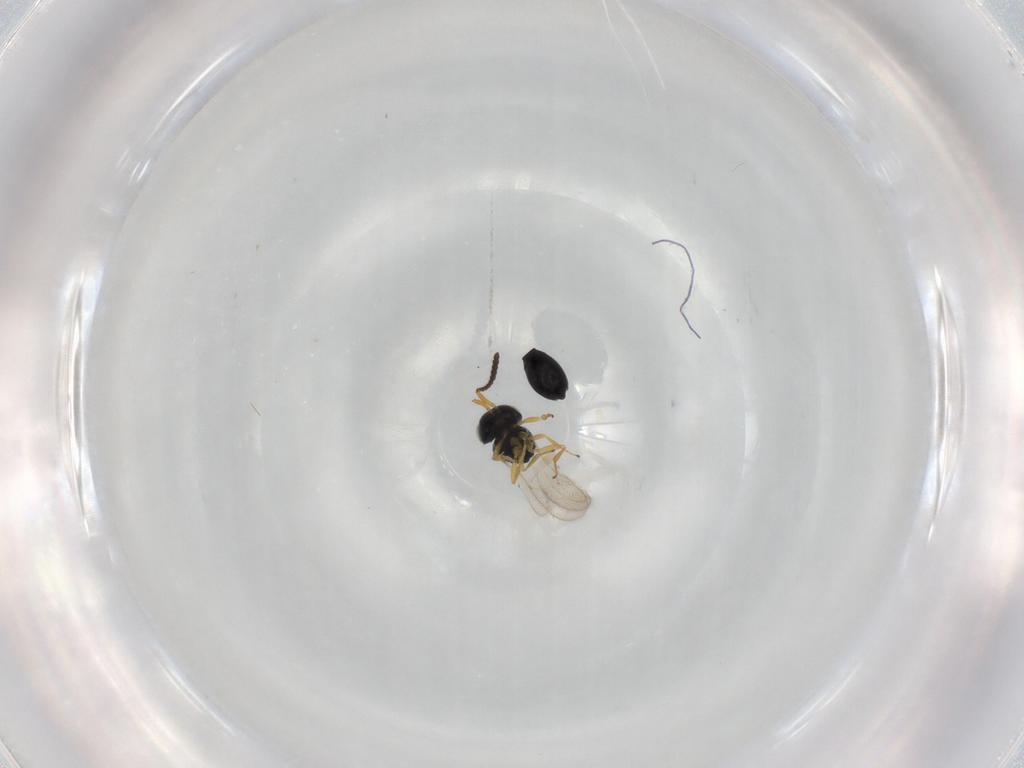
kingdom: Animalia
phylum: Arthropoda
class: Insecta
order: Hymenoptera
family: Scelionidae
